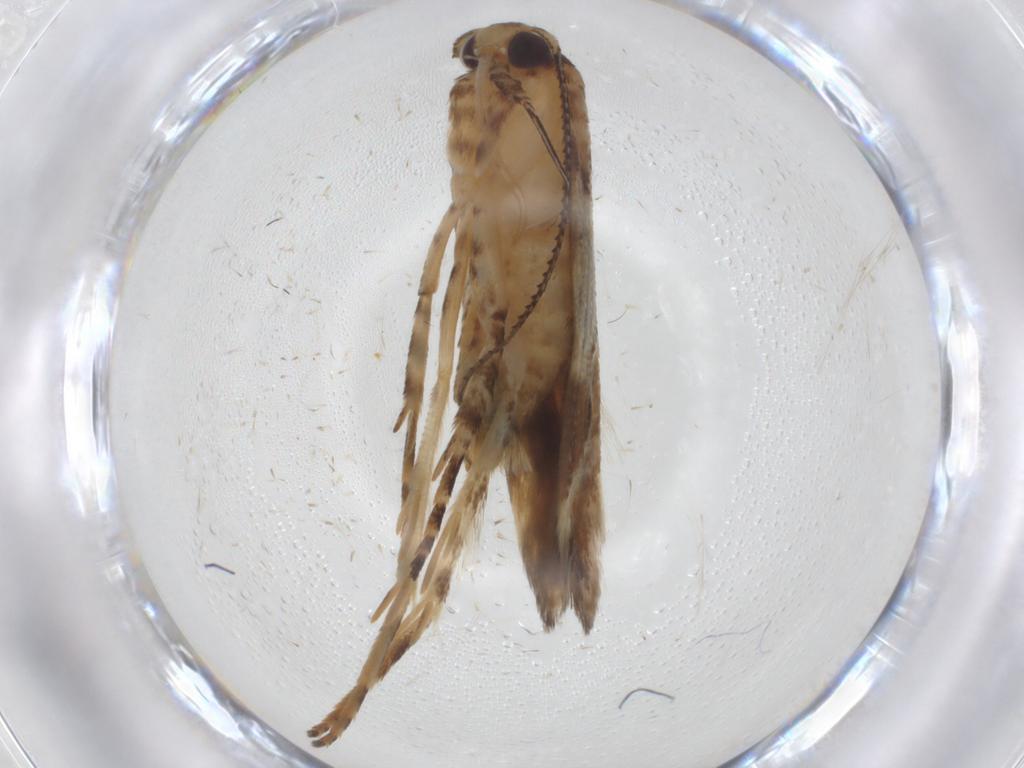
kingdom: Animalia
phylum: Arthropoda
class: Insecta
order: Lepidoptera
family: Gelechiidae
